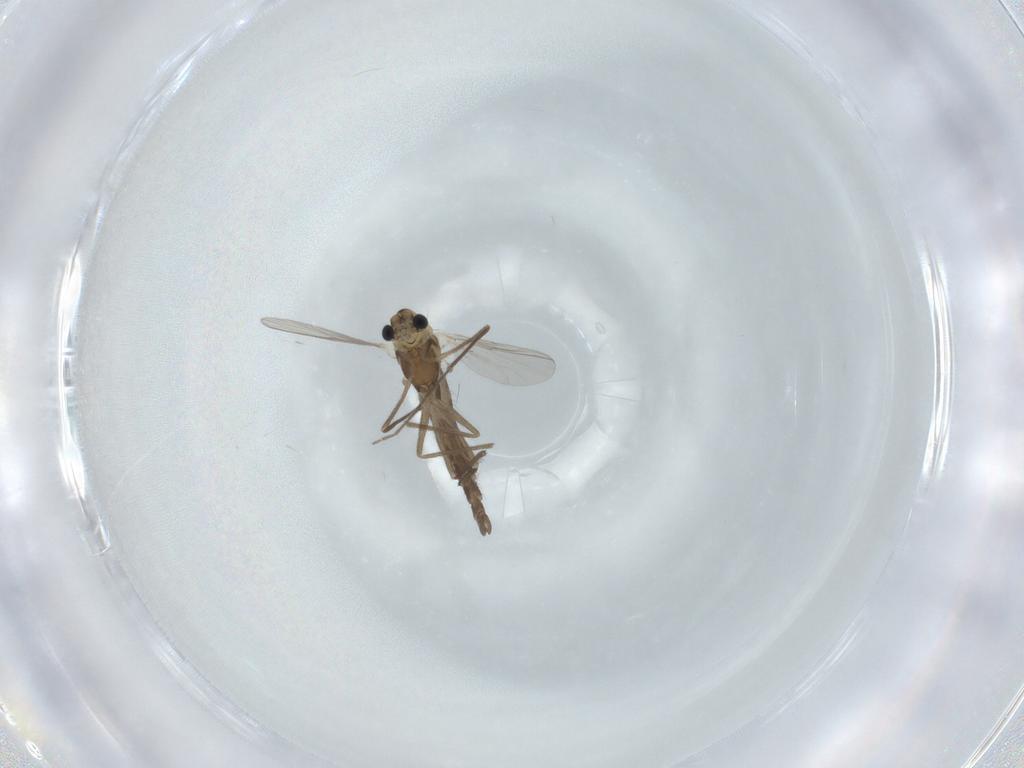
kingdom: Animalia
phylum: Arthropoda
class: Insecta
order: Diptera
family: Chironomidae
